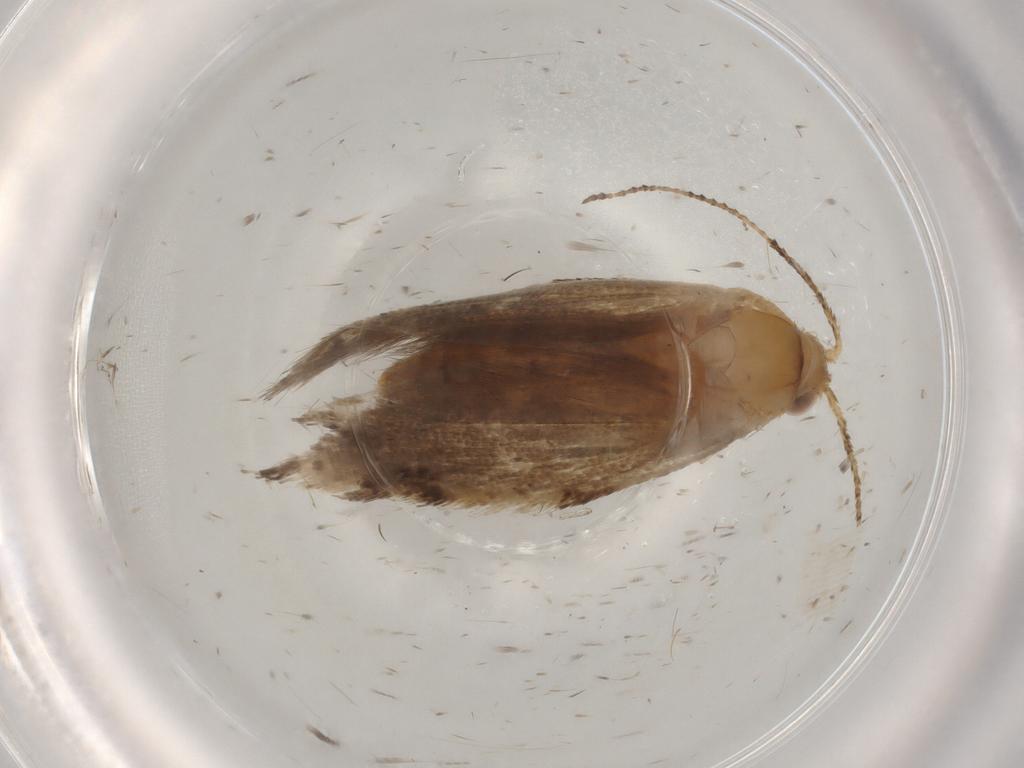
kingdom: Animalia
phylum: Arthropoda
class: Insecta
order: Lepidoptera
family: Ypsolophidae
